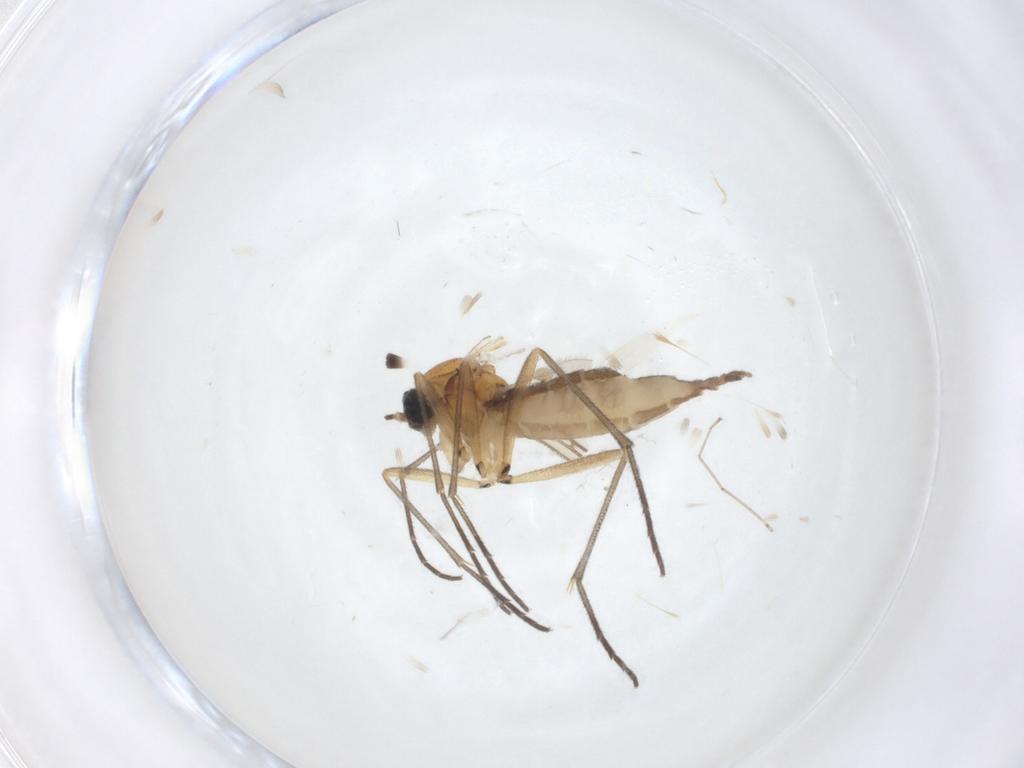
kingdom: Animalia
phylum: Arthropoda
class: Insecta
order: Diptera
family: Sciaridae
